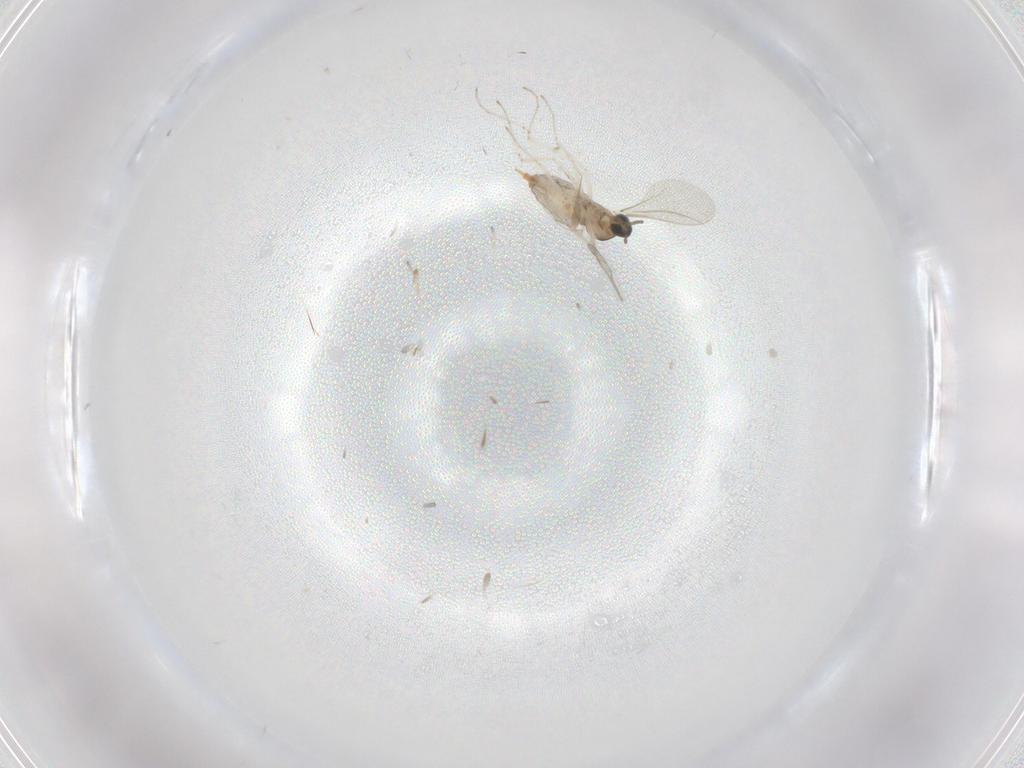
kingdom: Animalia
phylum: Arthropoda
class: Insecta
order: Diptera
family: Cecidomyiidae
